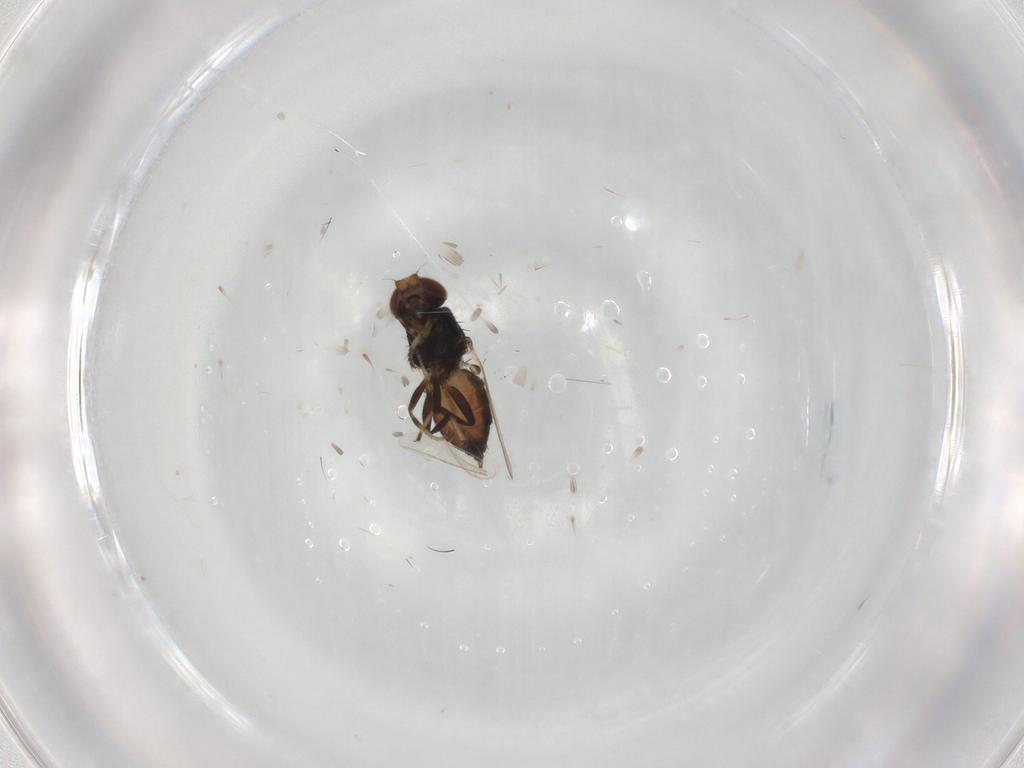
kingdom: Animalia
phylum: Arthropoda
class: Insecta
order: Diptera
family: Chloropidae
